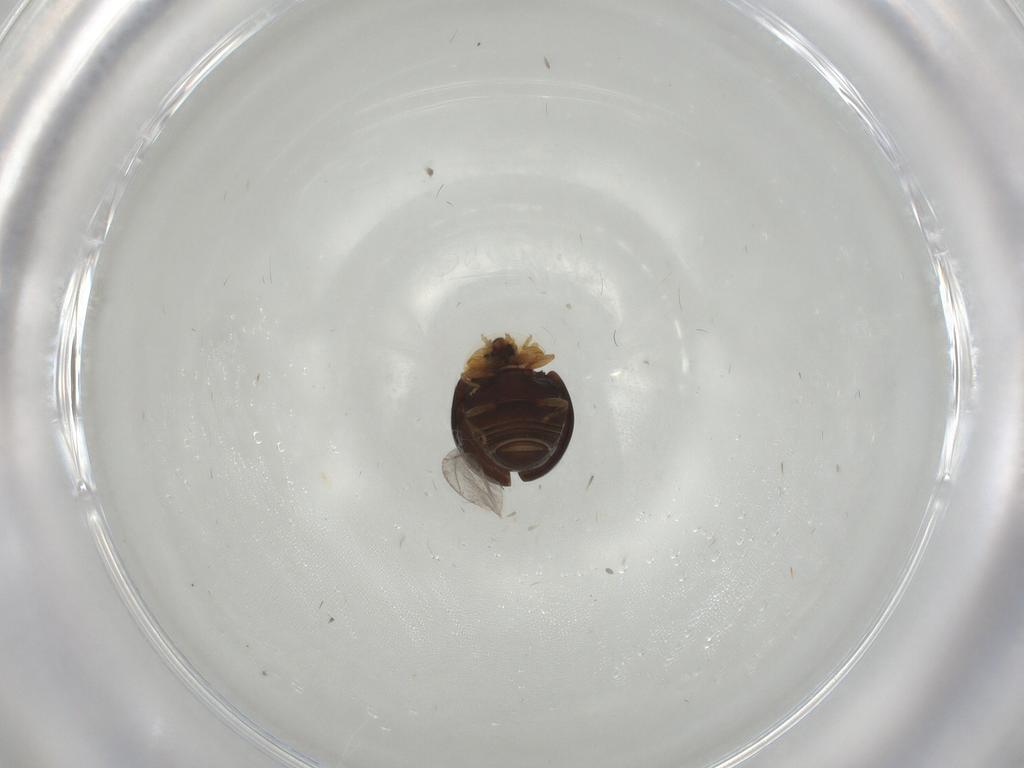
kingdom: Animalia
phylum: Arthropoda
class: Insecta
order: Coleoptera
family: Corylophidae
